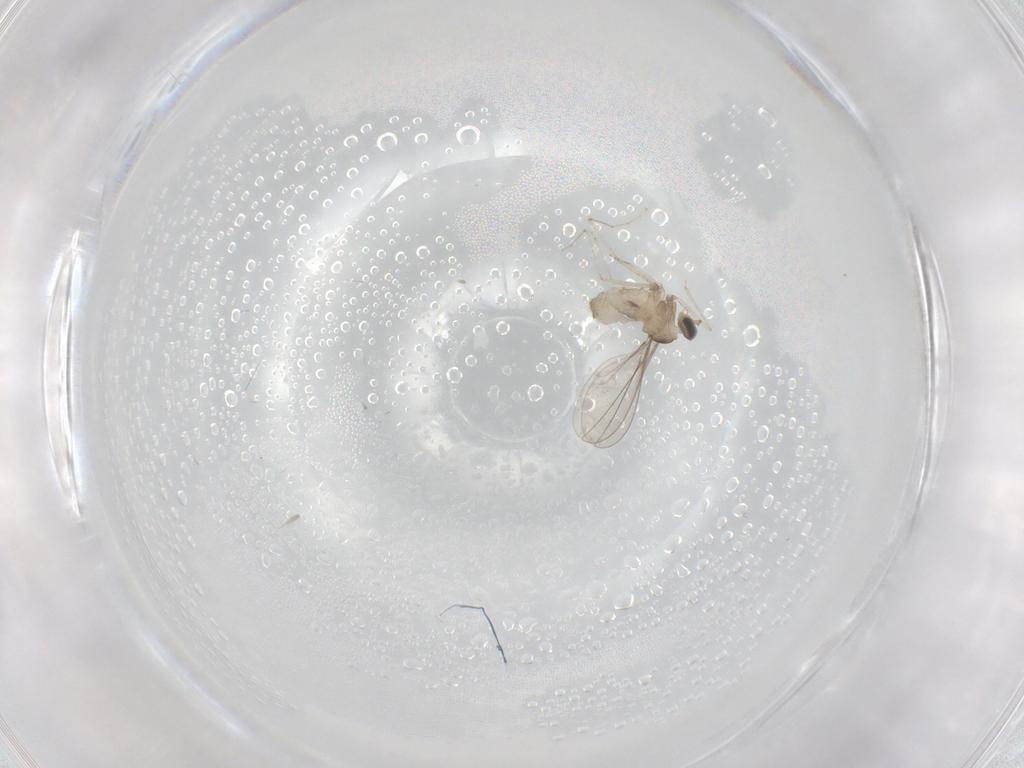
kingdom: Animalia
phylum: Arthropoda
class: Insecta
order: Diptera
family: Cecidomyiidae
